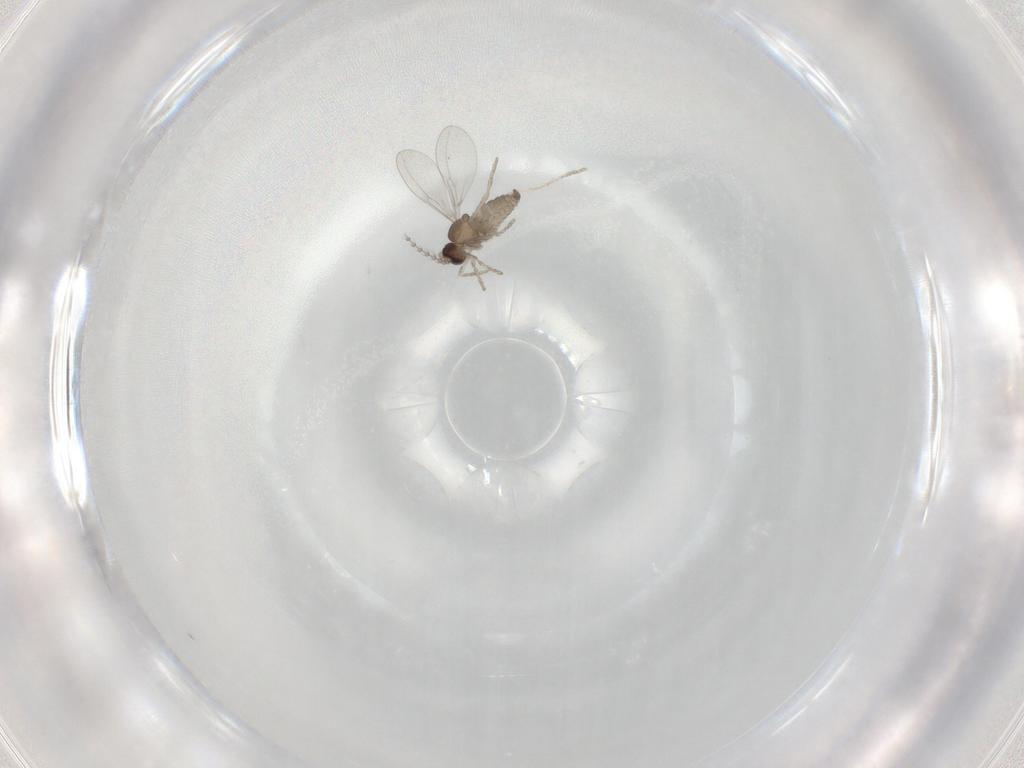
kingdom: Animalia
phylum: Arthropoda
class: Insecta
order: Diptera
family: Cecidomyiidae
